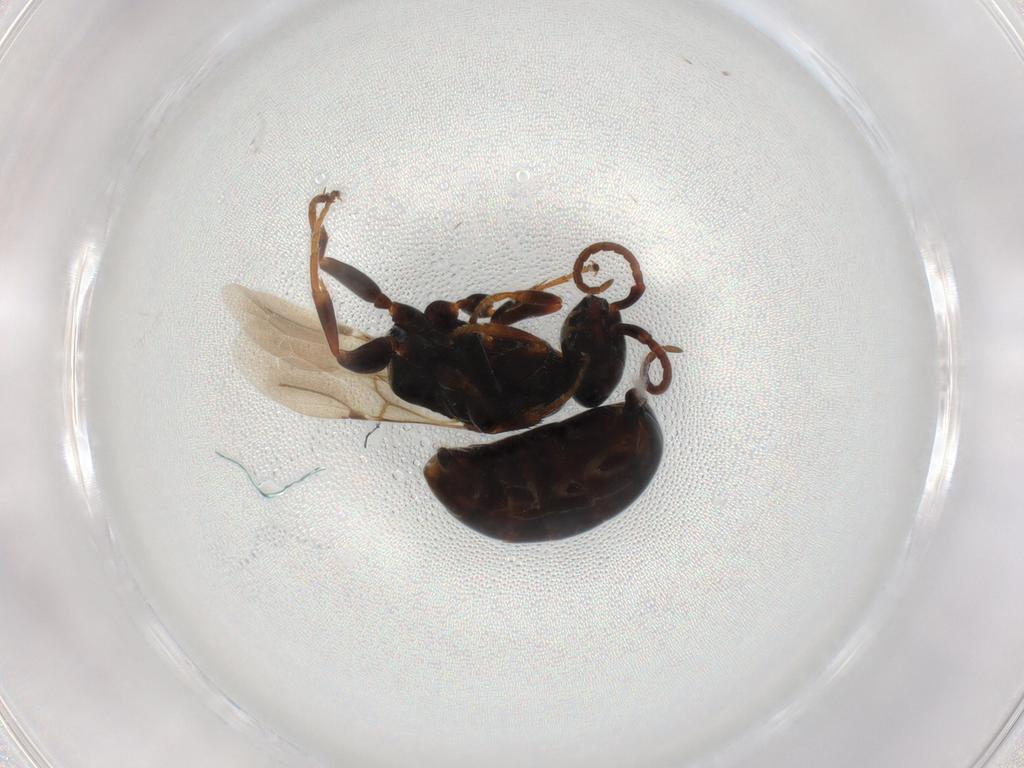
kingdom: Animalia
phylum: Arthropoda
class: Insecta
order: Hymenoptera
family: Bethylidae
